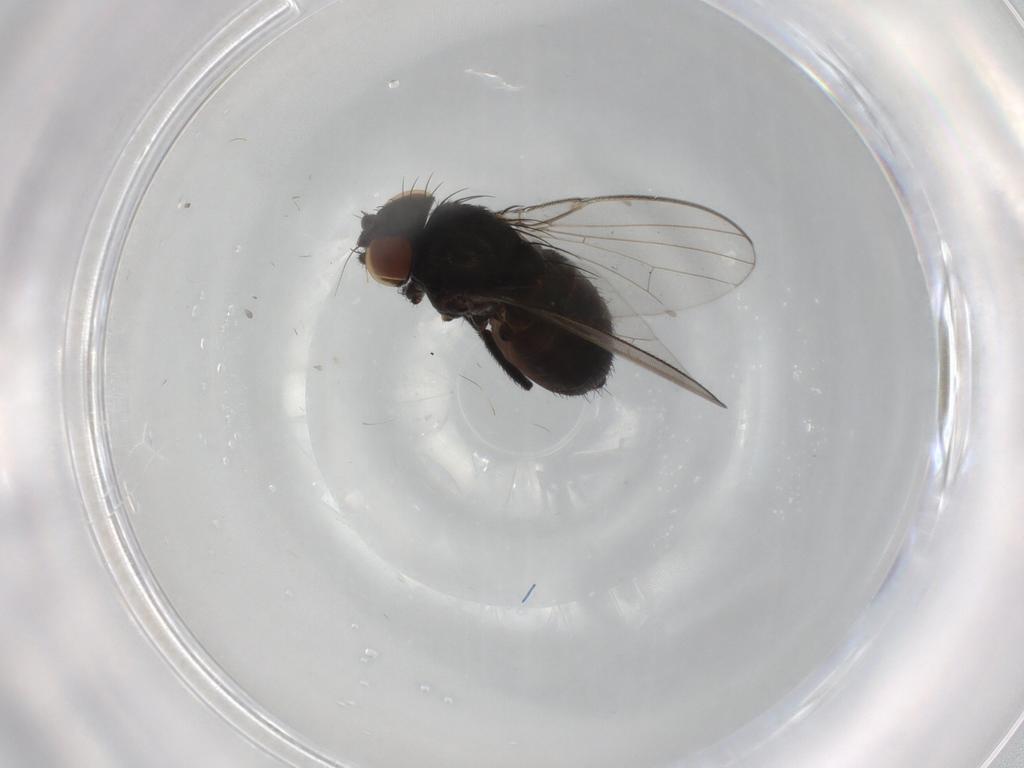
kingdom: Animalia
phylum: Arthropoda
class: Insecta
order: Diptera
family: Milichiidae
